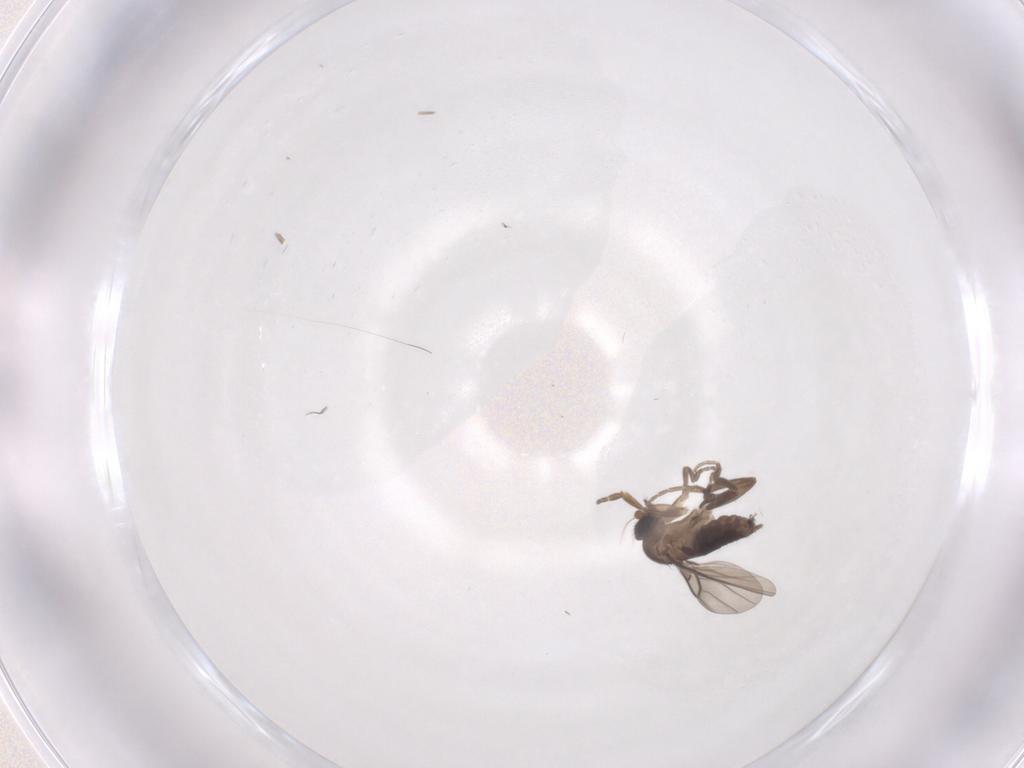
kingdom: Animalia
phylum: Arthropoda
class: Insecta
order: Diptera
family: Phoridae
